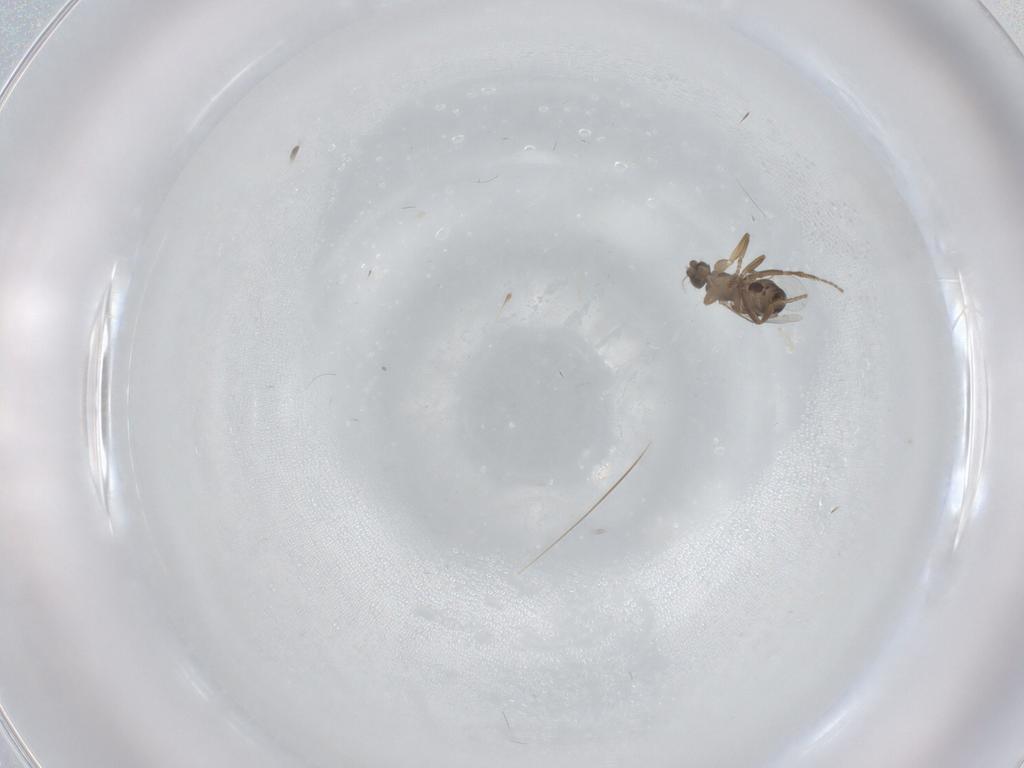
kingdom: Animalia
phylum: Arthropoda
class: Insecta
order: Diptera
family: Phoridae
